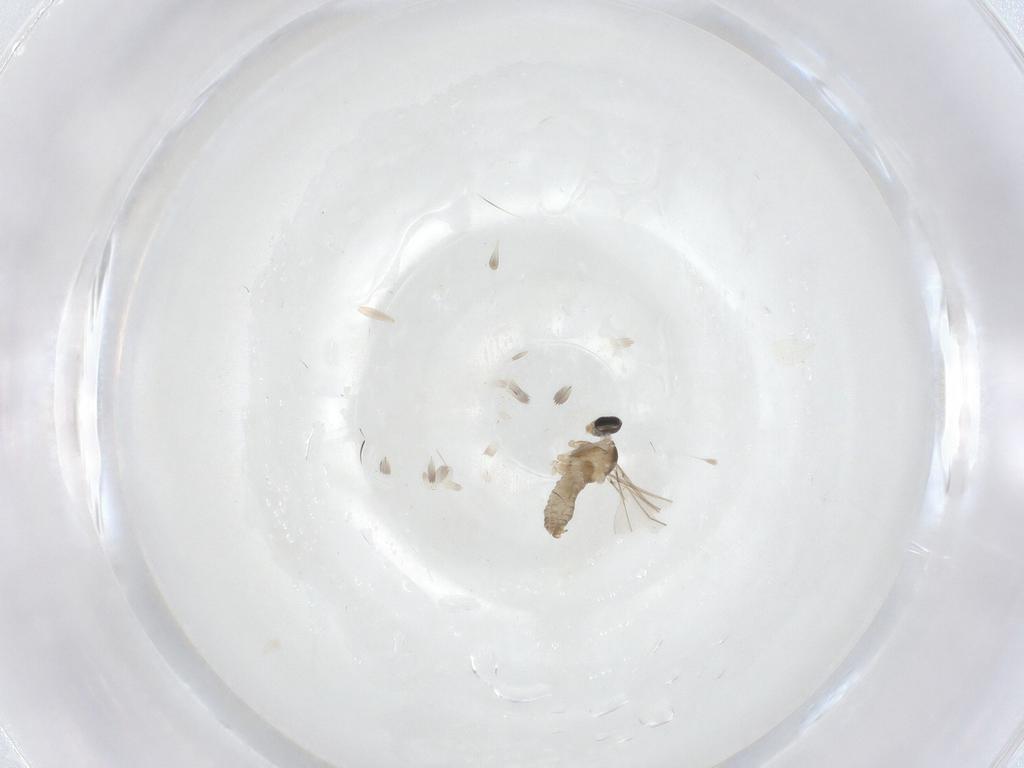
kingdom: Animalia
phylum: Arthropoda
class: Insecta
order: Diptera
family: Cecidomyiidae
